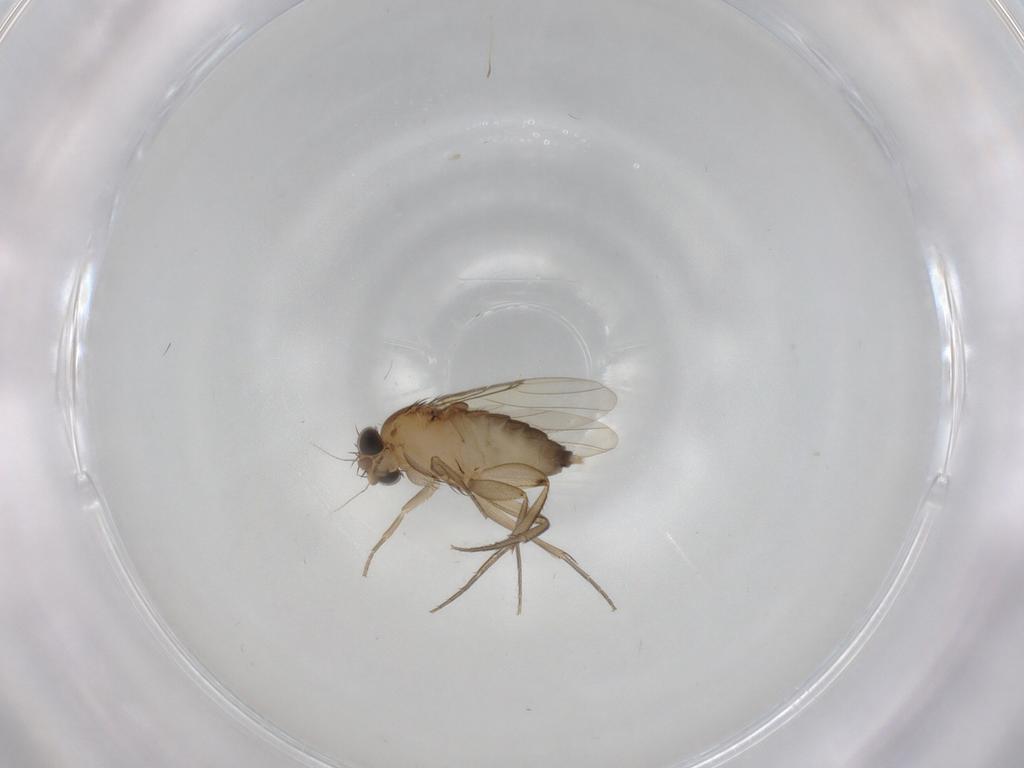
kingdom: Animalia
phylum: Arthropoda
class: Insecta
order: Diptera
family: Phoridae
